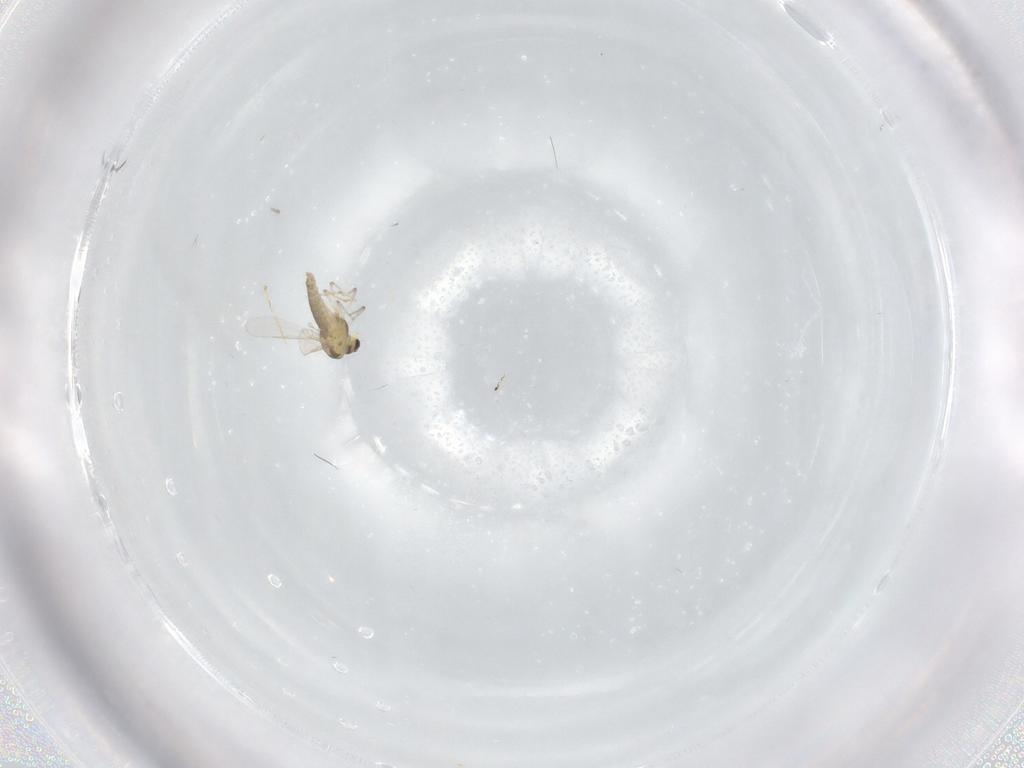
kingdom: Animalia
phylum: Arthropoda
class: Insecta
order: Diptera
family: Chironomidae
